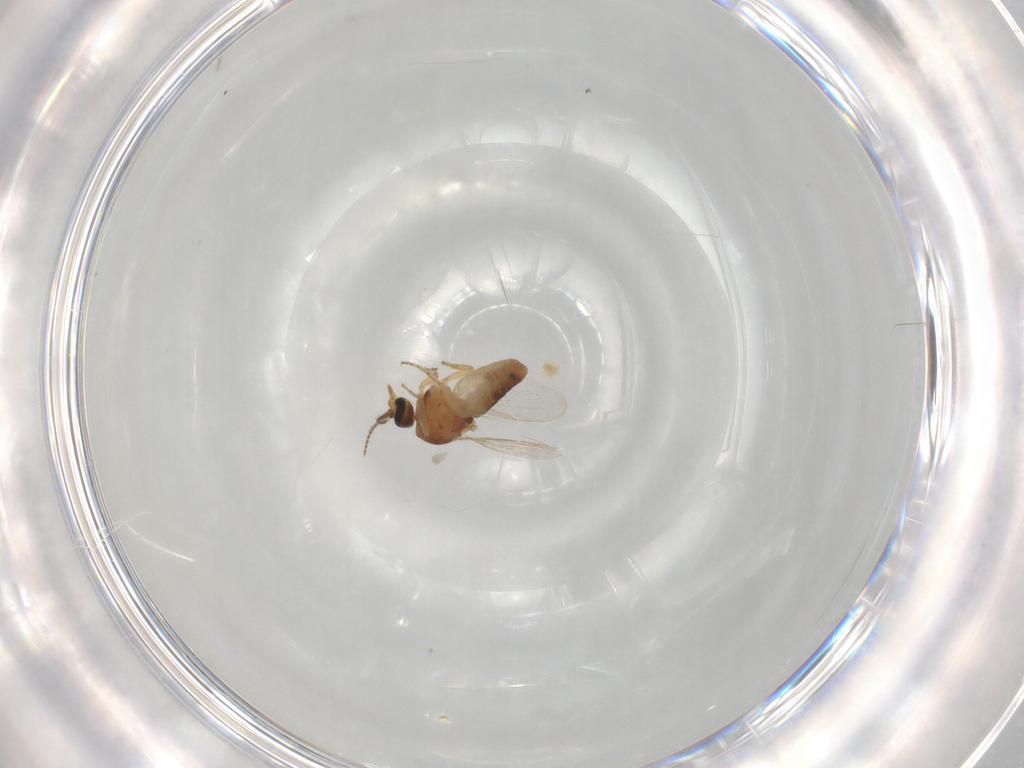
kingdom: Animalia
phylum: Arthropoda
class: Insecta
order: Diptera
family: Ceratopogonidae
